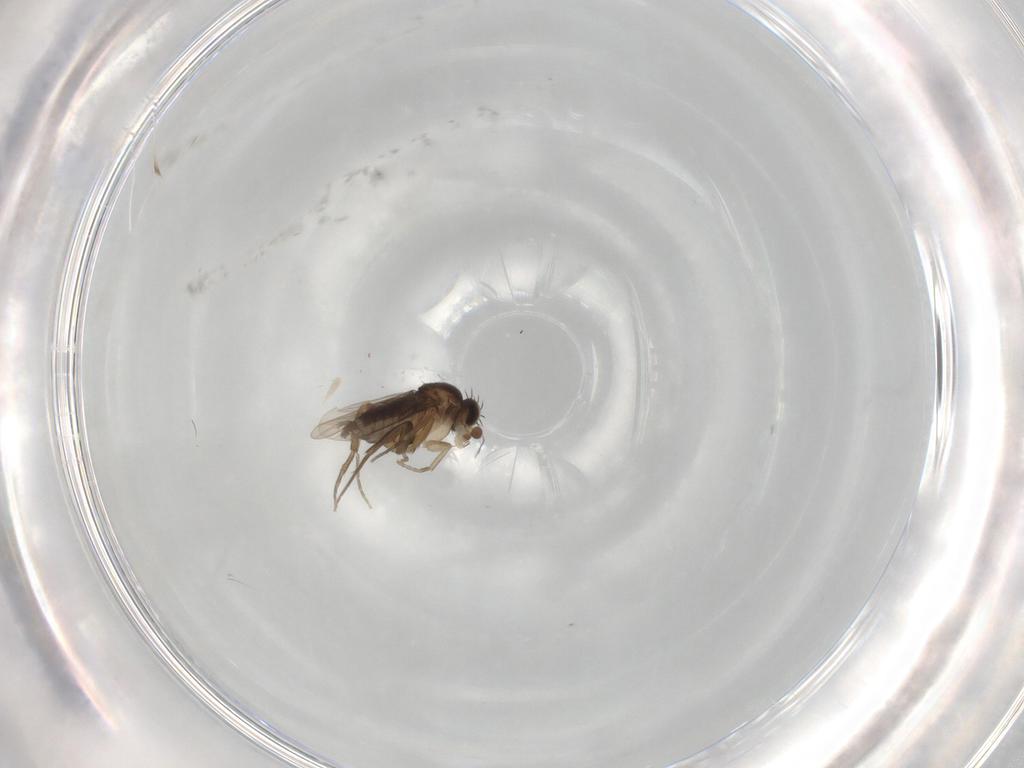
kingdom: Animalia
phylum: Arthropoda
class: Insecta
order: Diptera
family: Phoridae
